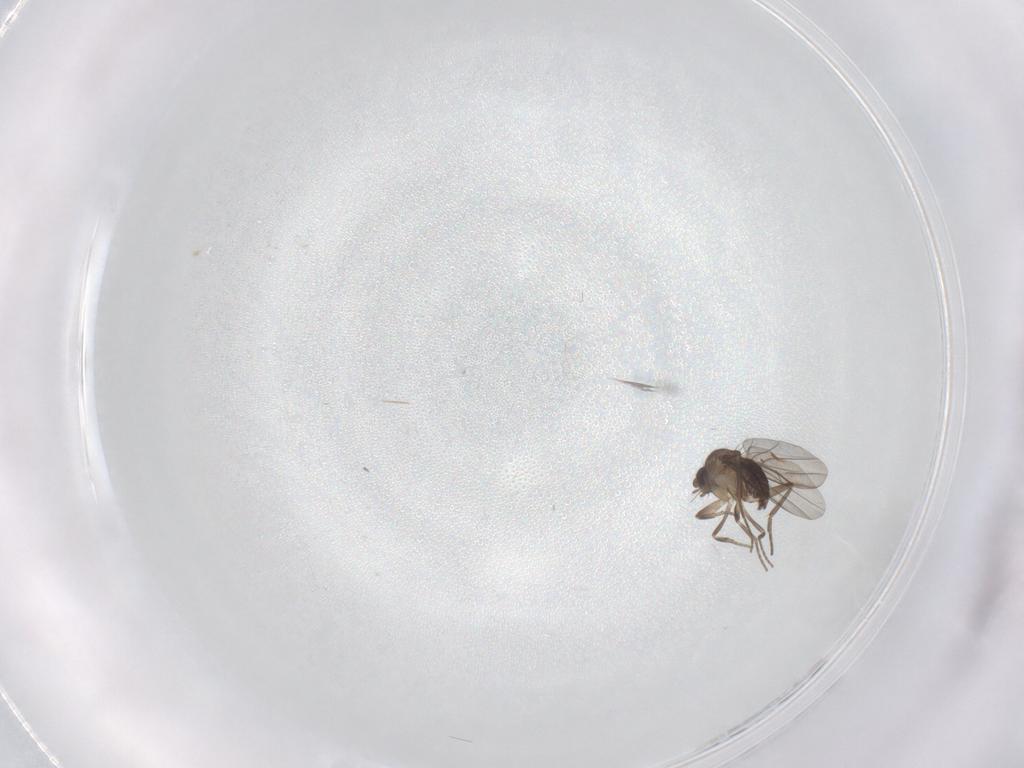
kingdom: Animalia
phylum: Arthropoda
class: Insecta
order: Diptera
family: Phoridae
